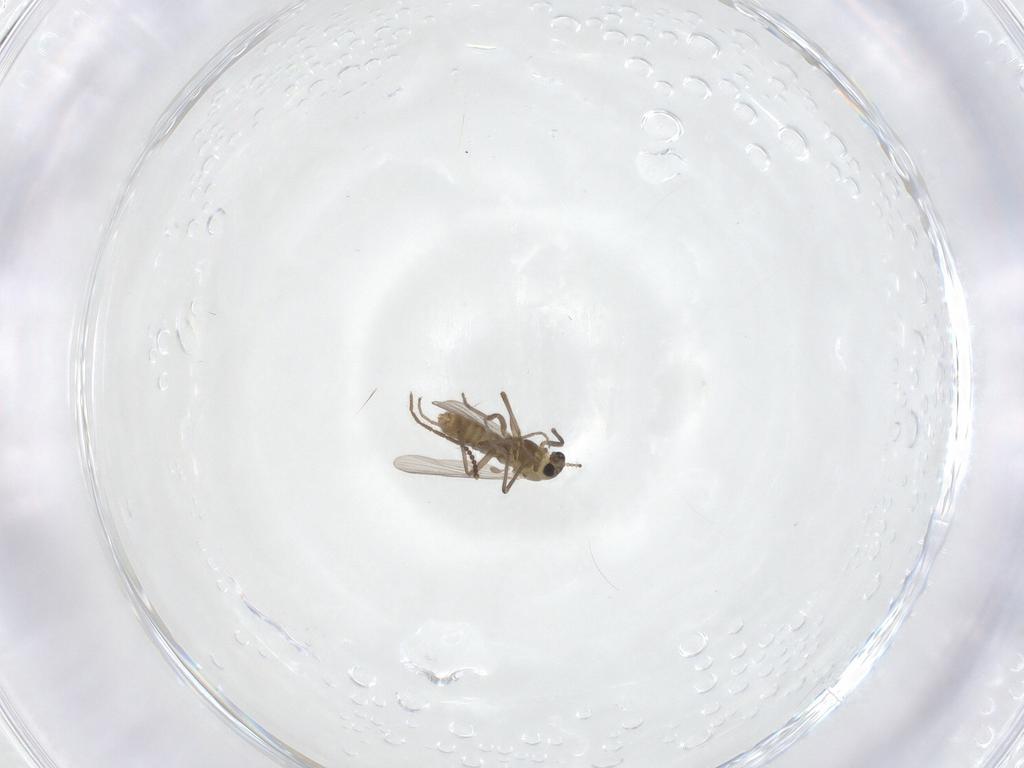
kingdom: Animalia
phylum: Arthropoda
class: Insecta
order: Diptera
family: Chironomidae
